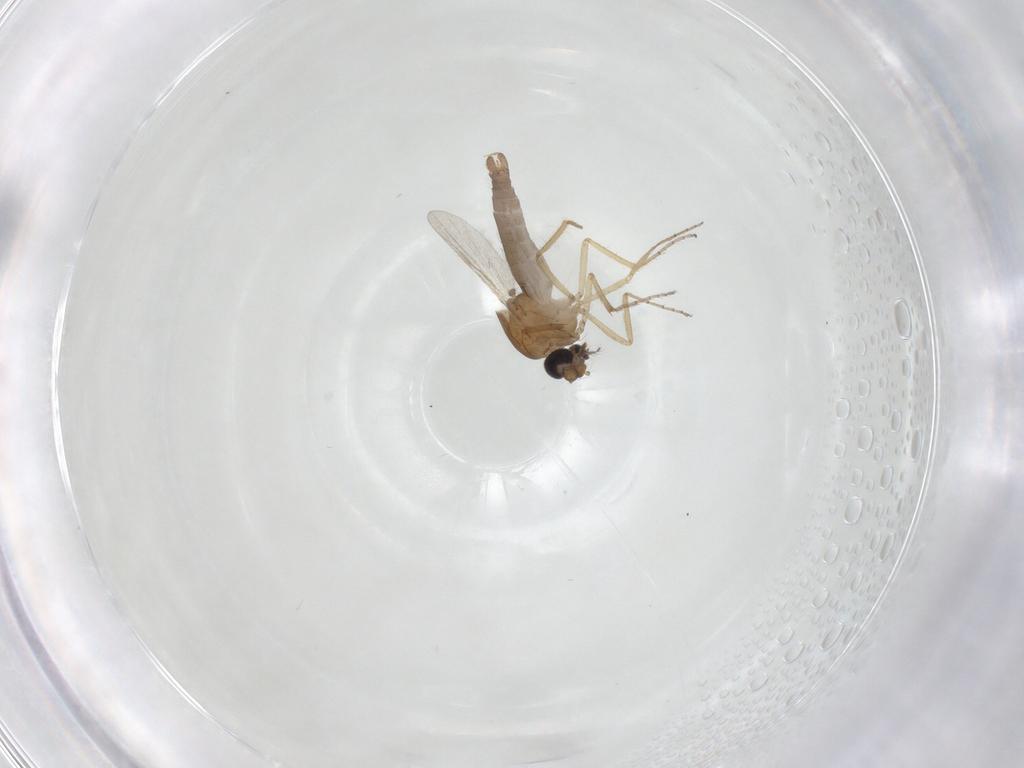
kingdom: Animalia
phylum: Arthropoda
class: Insecta
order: Diptera
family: Ceratopogonidae
